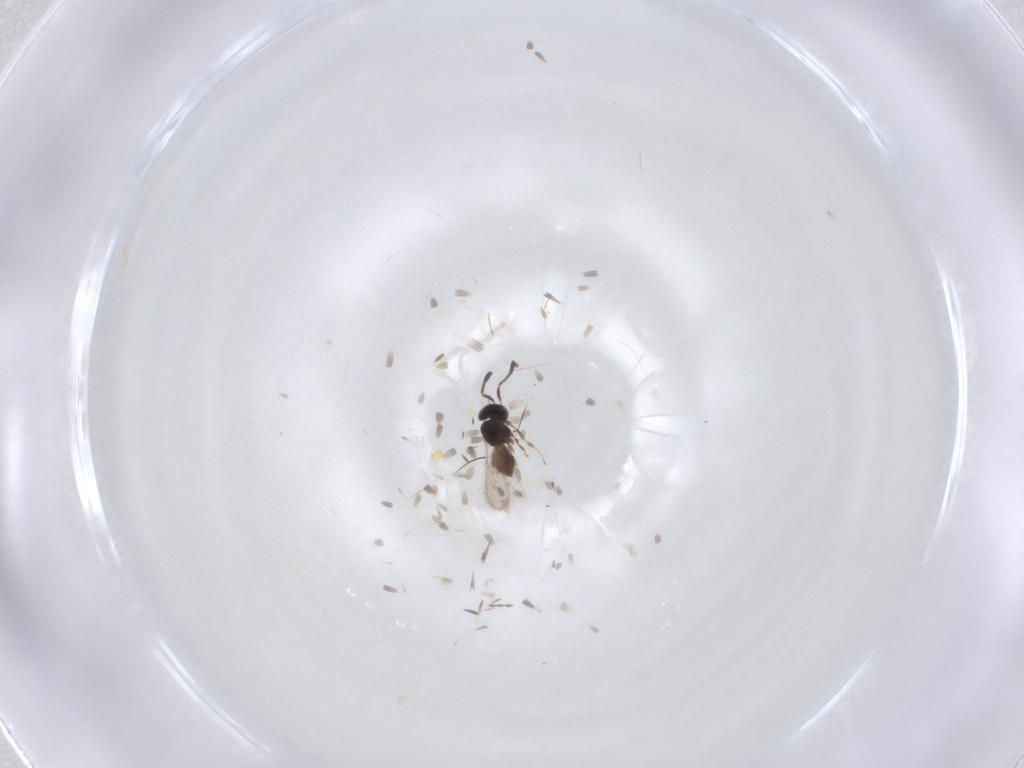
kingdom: Animalia
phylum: Arthropoda
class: Insecta
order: Hymenoptera
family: Scelionidae
